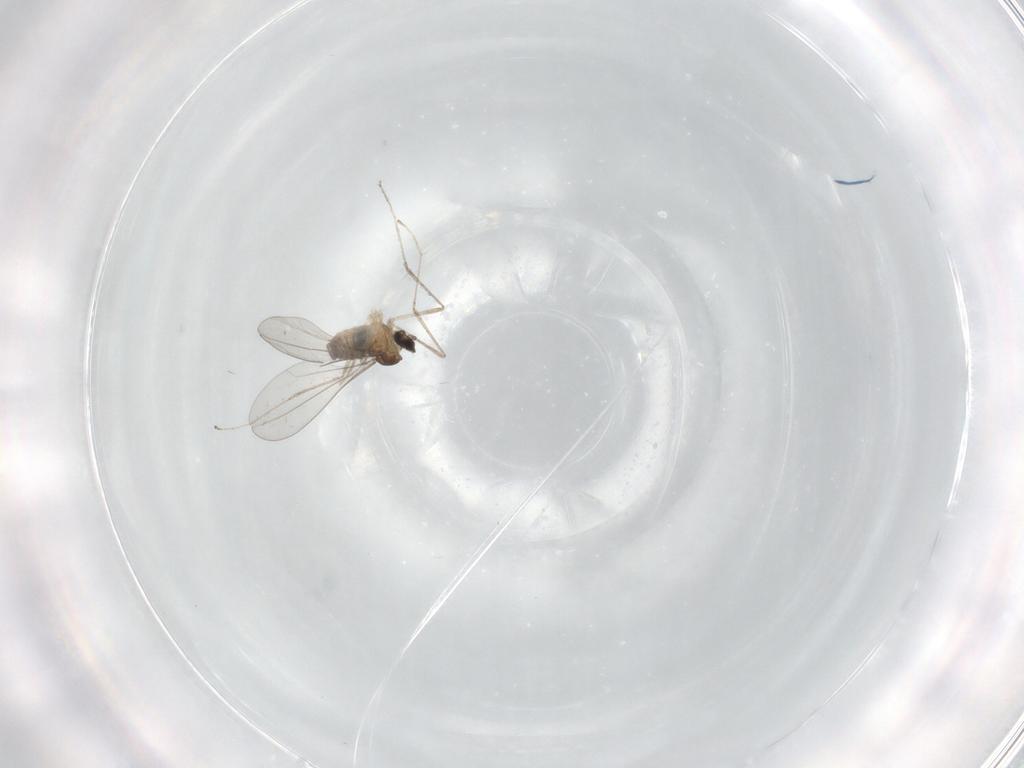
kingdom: Animalia
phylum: Arthropoda
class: Insecta
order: Diptera
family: Cecidomyiidae
